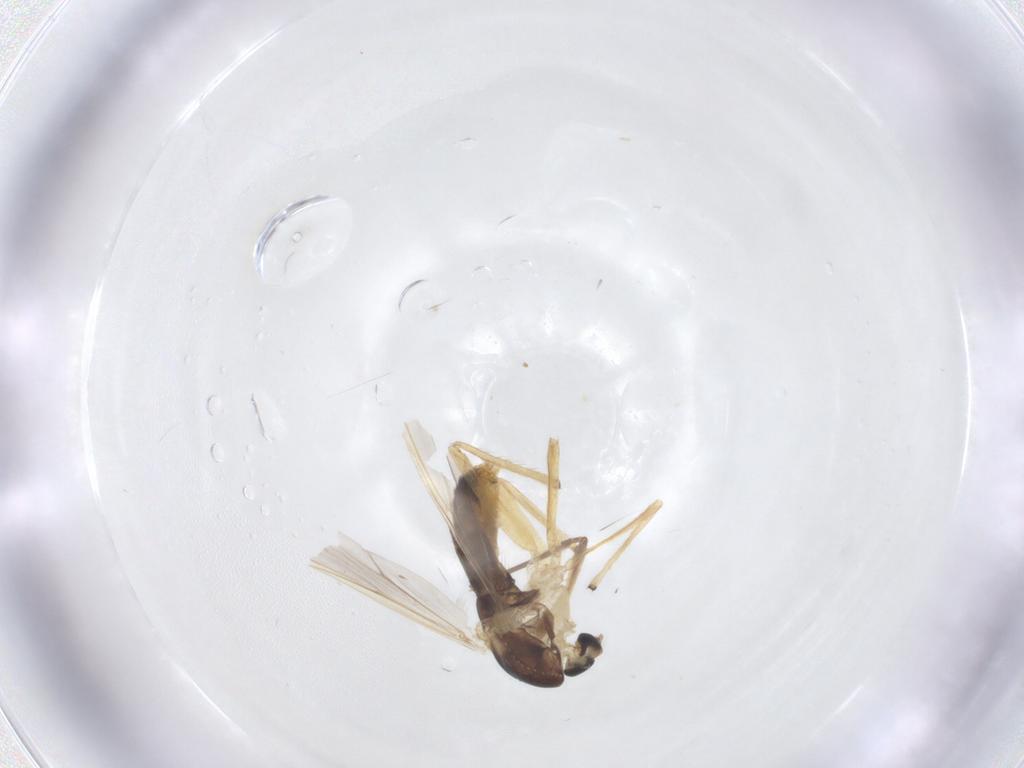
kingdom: Animalia
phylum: Arthropoda
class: Insecta
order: Diptera
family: Chironomidae
